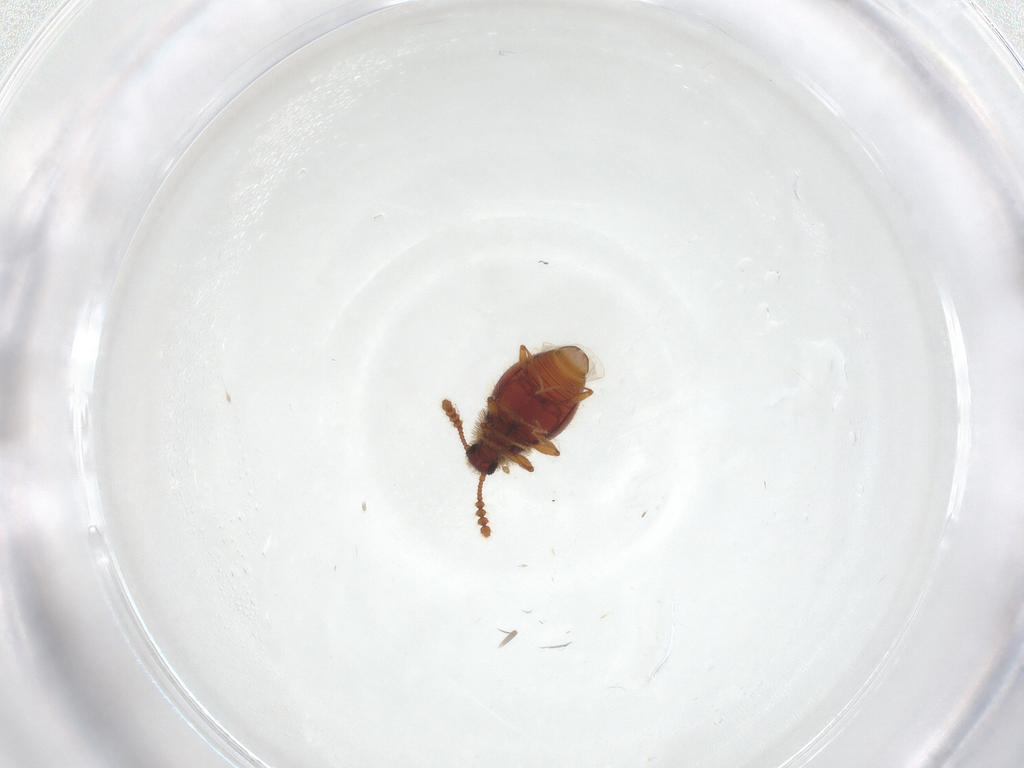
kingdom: Animalia
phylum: Arthropoda
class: Insecta
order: Coleoptera
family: Staphylinidae
